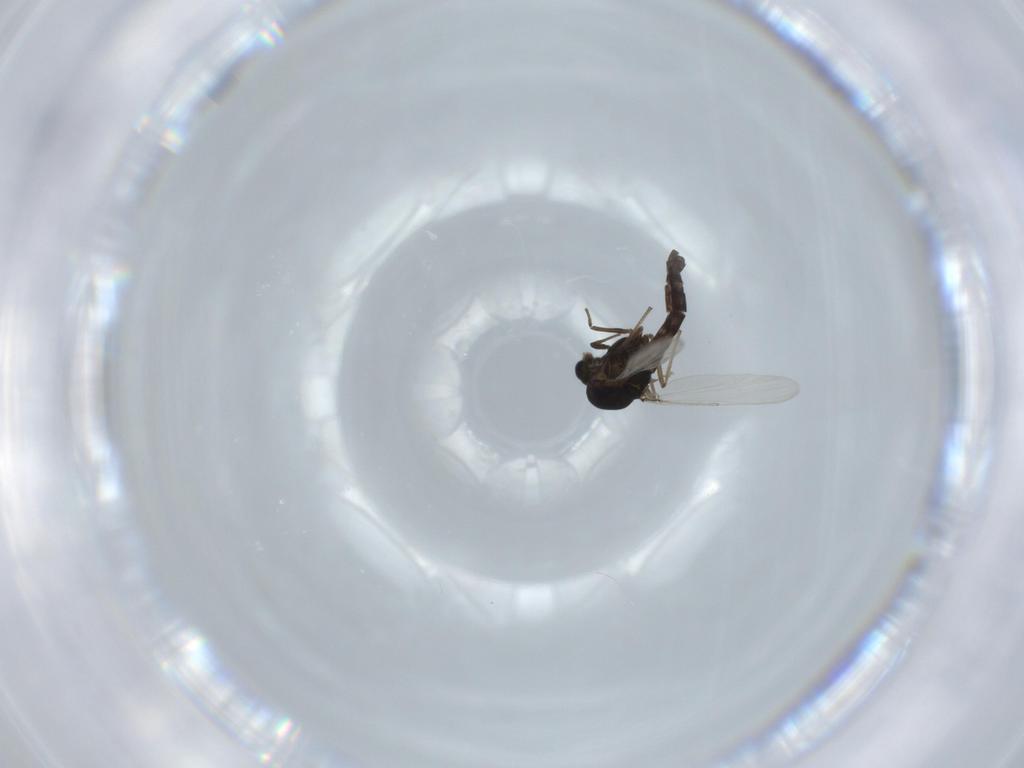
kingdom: Animalia
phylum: Arthropoda
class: Insecta
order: Diptera
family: Chironomidae
